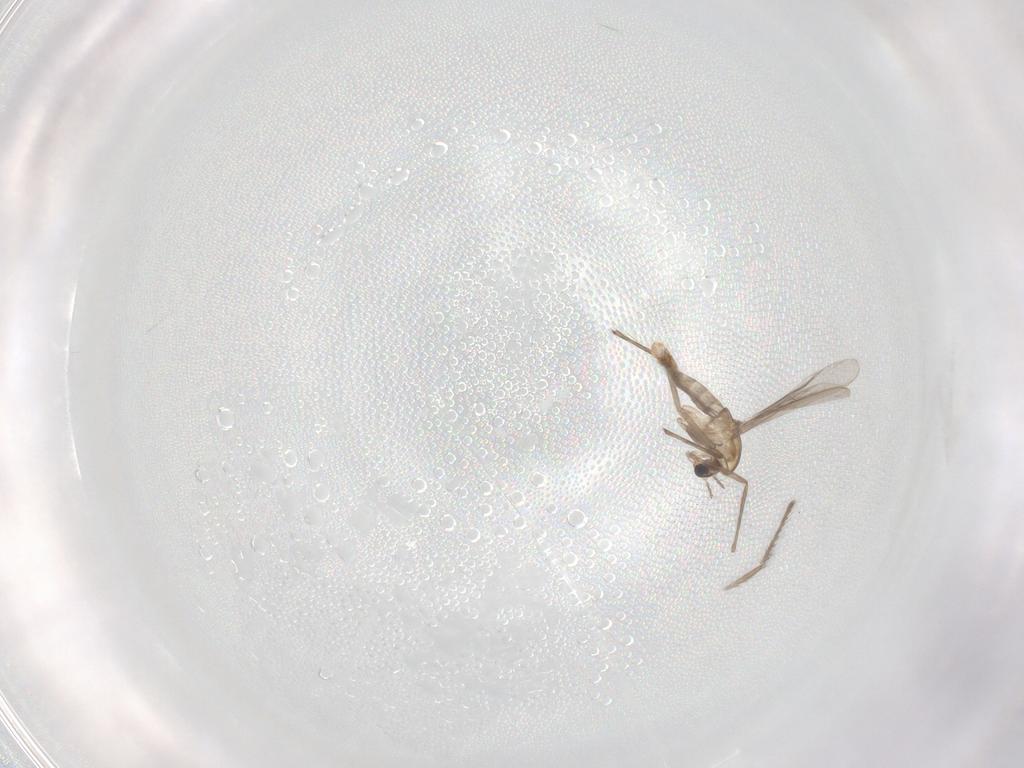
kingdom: Animalia
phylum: Arthropoda
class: Insecta
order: Diptera
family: Chironomidae
